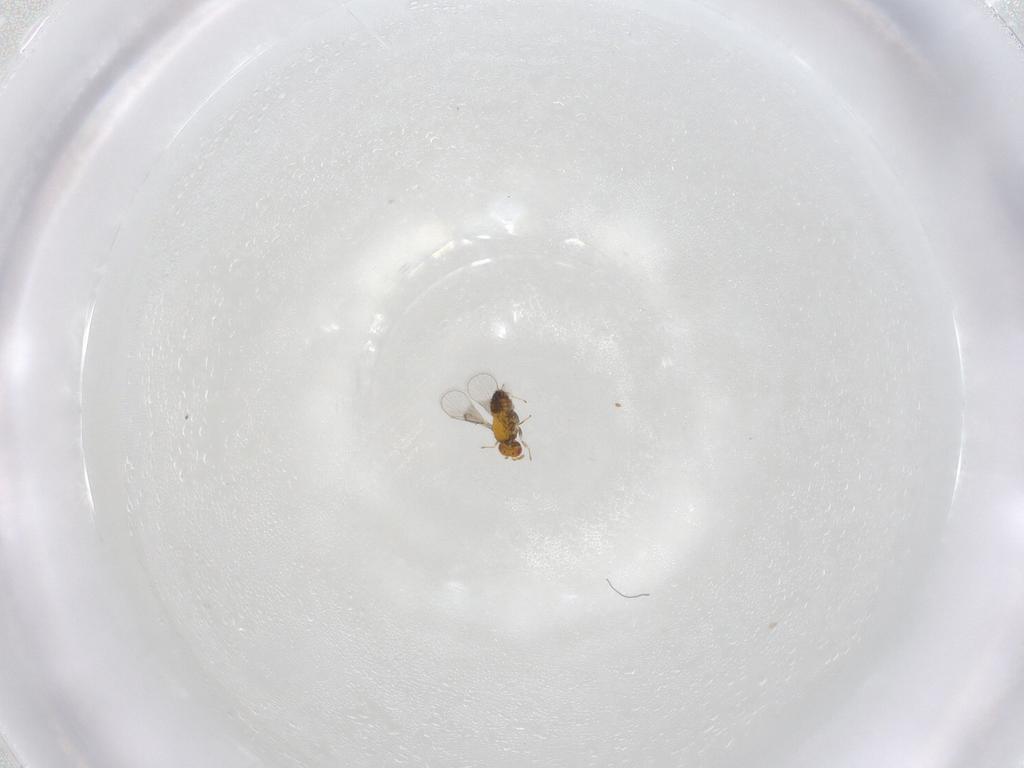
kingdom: Animalia
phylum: Arthropoda
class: Insecta
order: Hymenoptera
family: Trichogrammatidae
